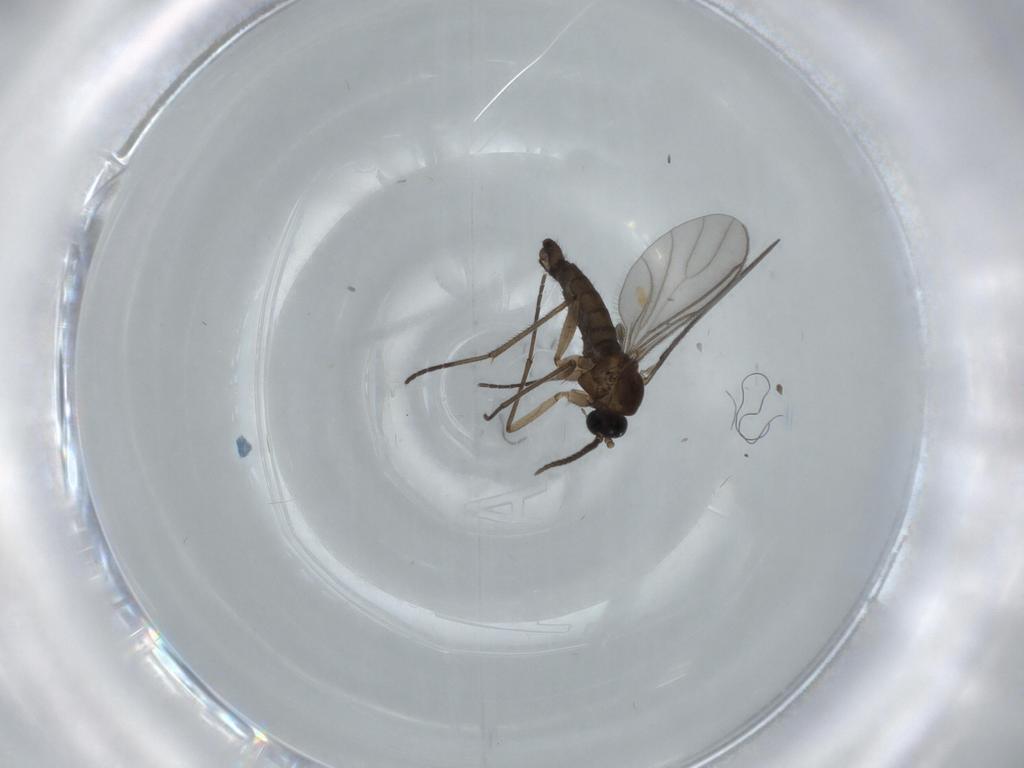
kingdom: Animalia
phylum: Arthropoda
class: Insecta
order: Diptera
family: Sciaridae
